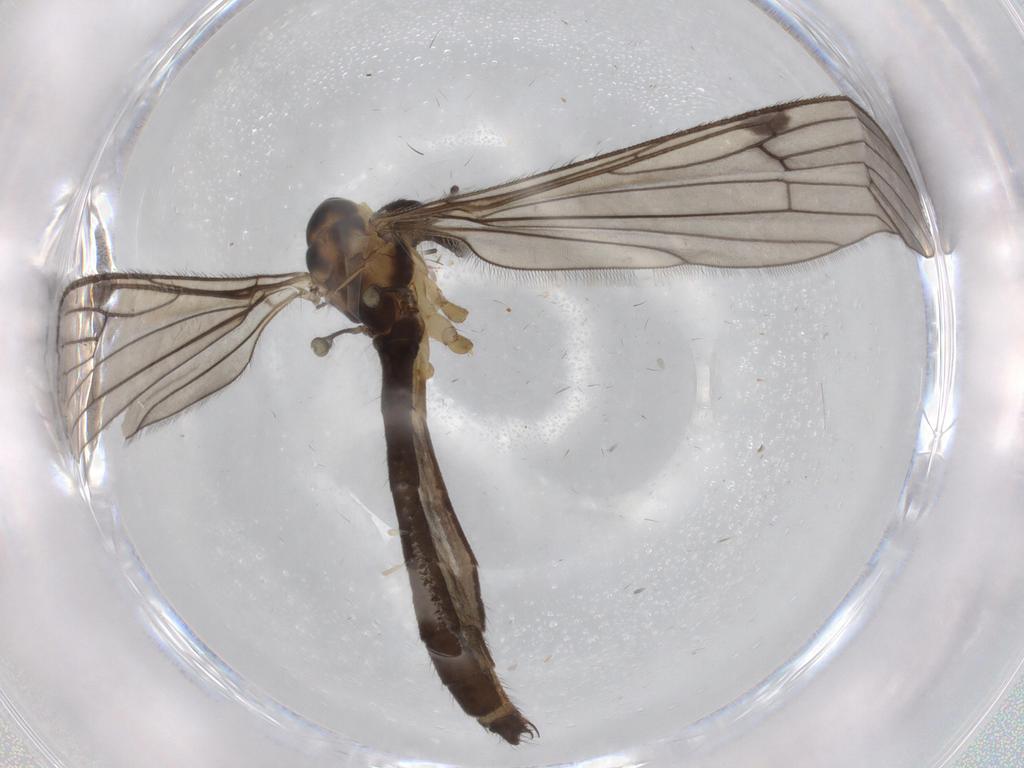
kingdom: Animalia
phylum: Arthropoda
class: Insecta
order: Diptera
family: Limoniidae
